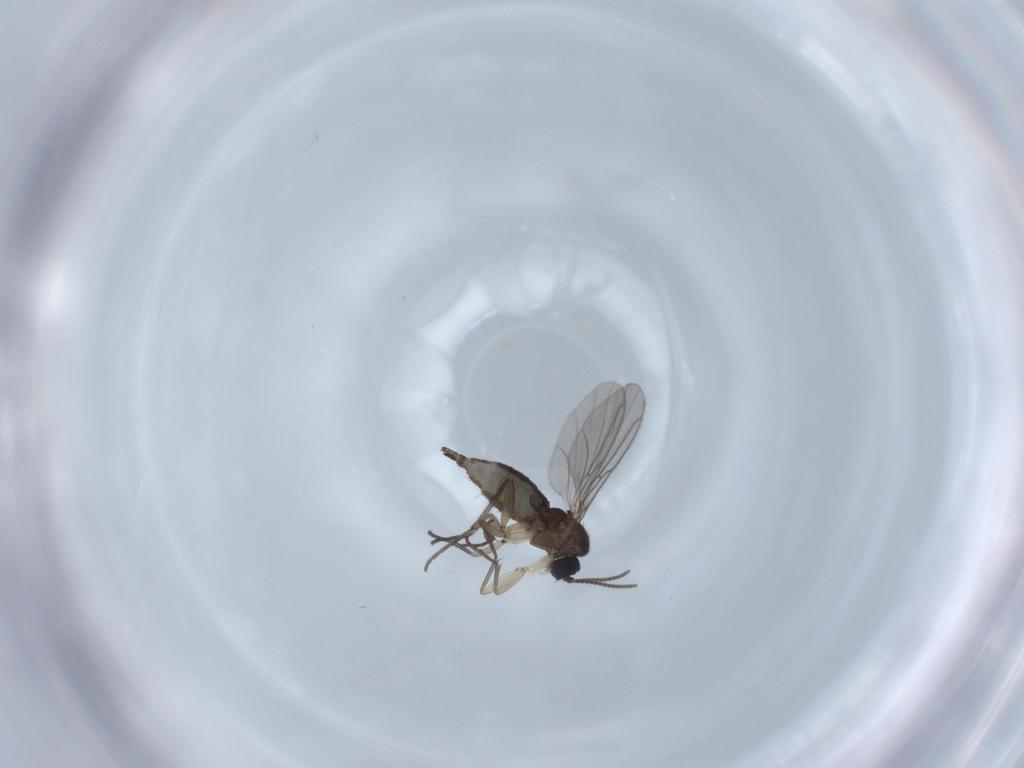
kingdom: Animalia
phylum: Arthropoda
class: Insecta
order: Diptera
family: Sciaridae
